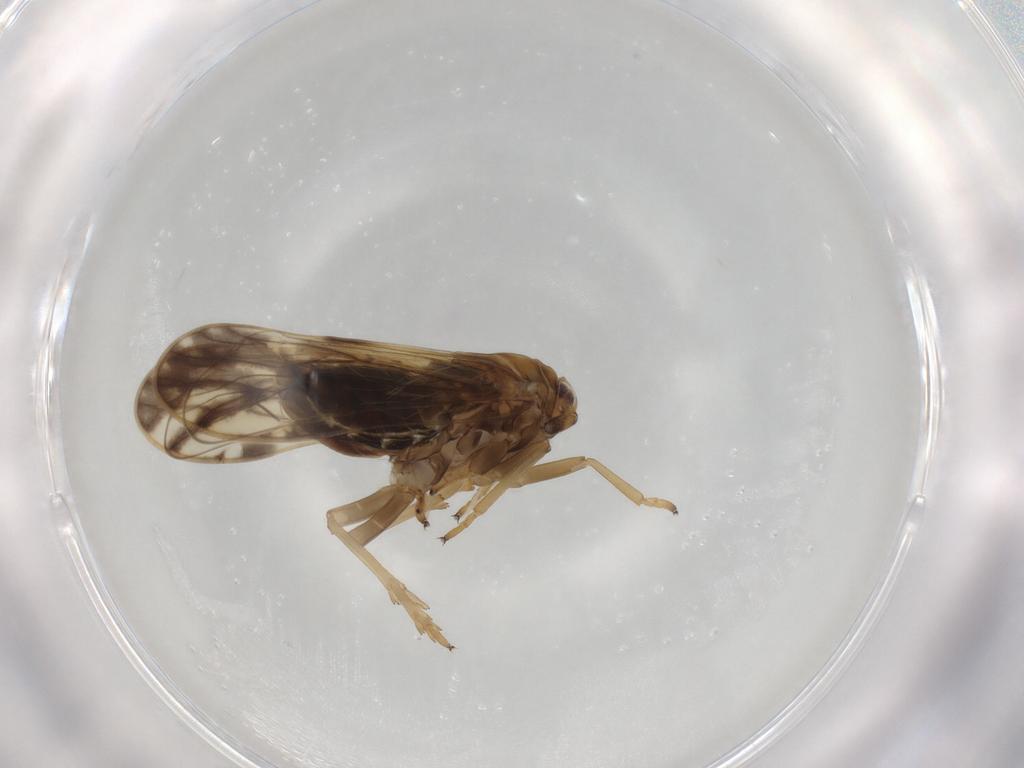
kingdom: Animalia
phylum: Arthropoda
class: Insecta
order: Hemiptera
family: Delphacidae
